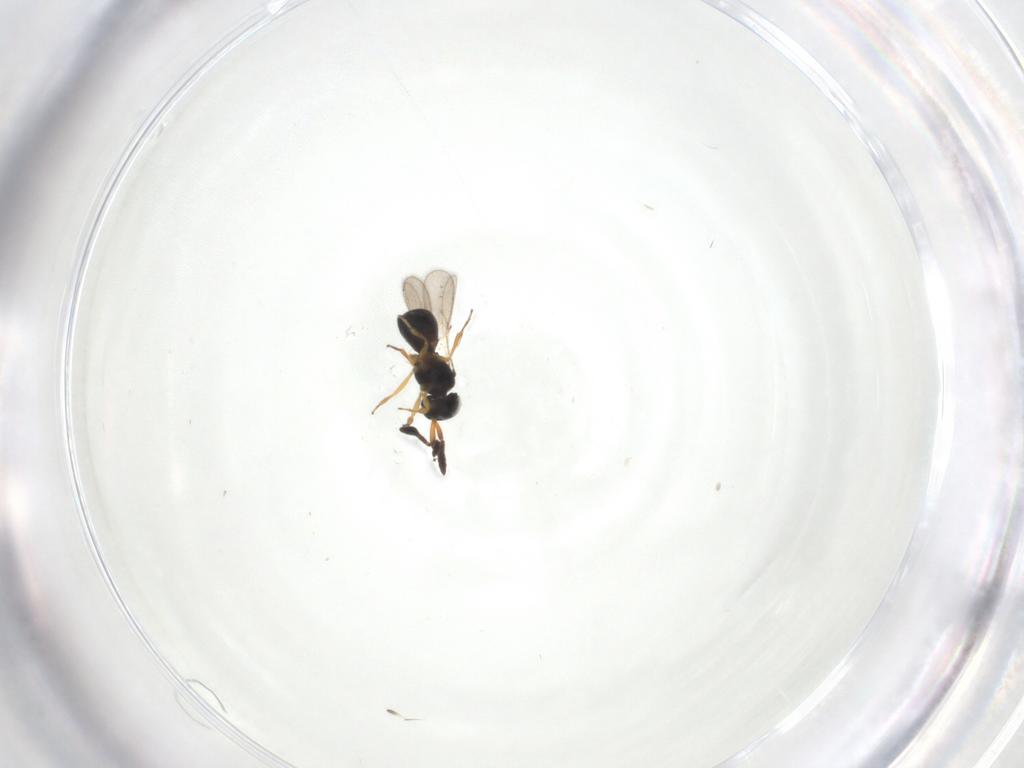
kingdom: Animalia
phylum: Arthropoda
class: Insecta
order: Hymenoptera
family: Scelionidae
